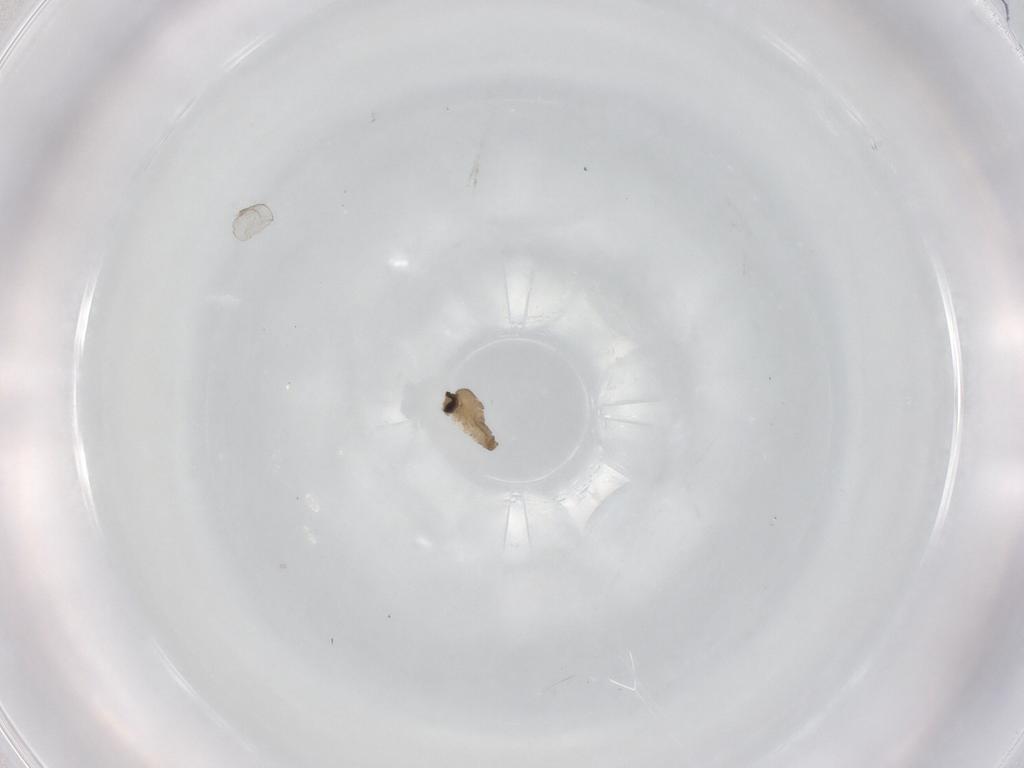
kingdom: Animalia
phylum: Arthropoda
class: Insecta
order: Diptera
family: Cecidomyiidae
